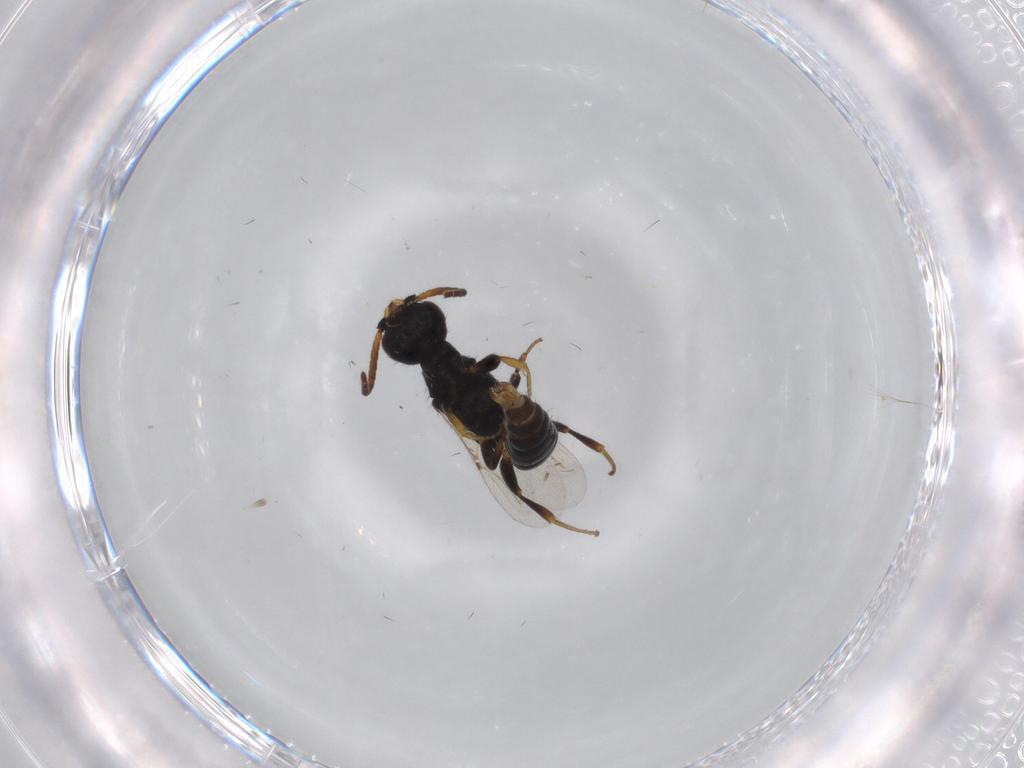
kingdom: Animalia
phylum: Arthropoda
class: Insecta
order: Hymenoptera
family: Bethylidae
